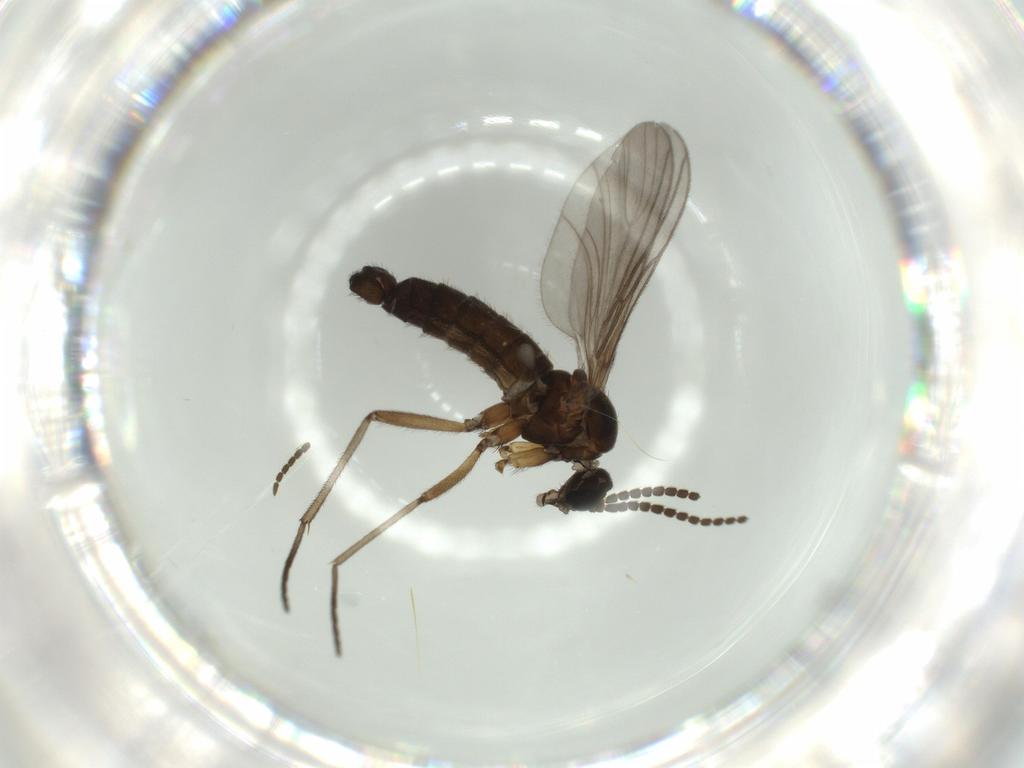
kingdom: Animalia
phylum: Arthropoda
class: Insecta
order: Diptera
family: Sciaridae
